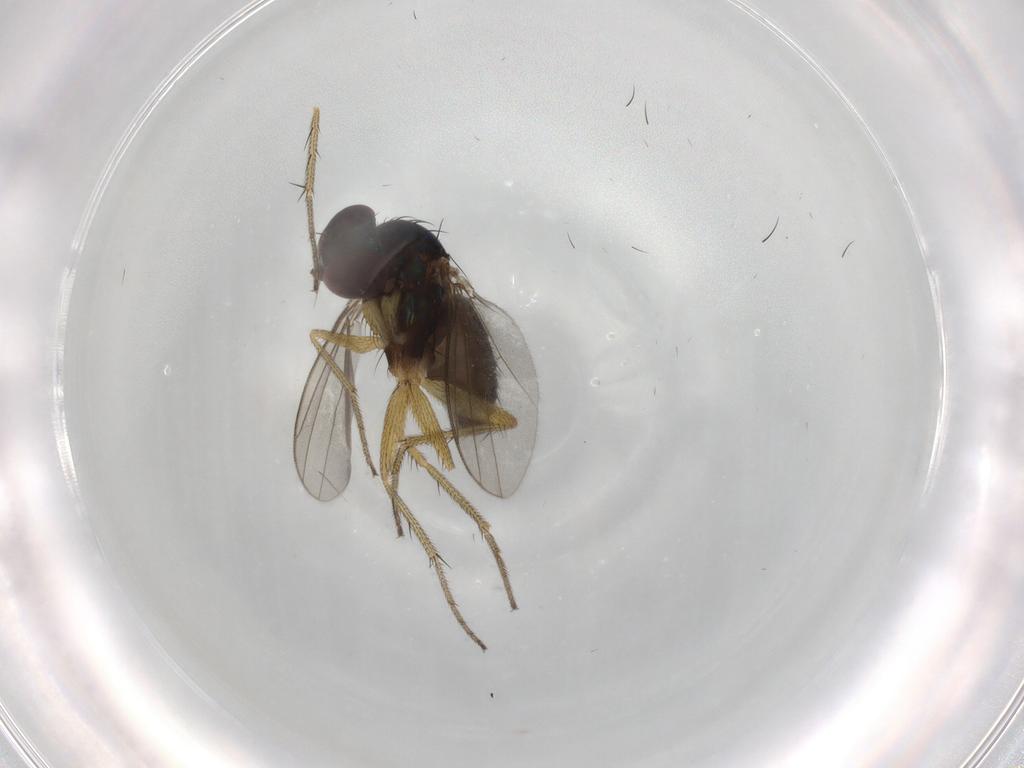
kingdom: Animalia
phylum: Arthropoda
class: Insecta
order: Diptera
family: Dolichopodidae
